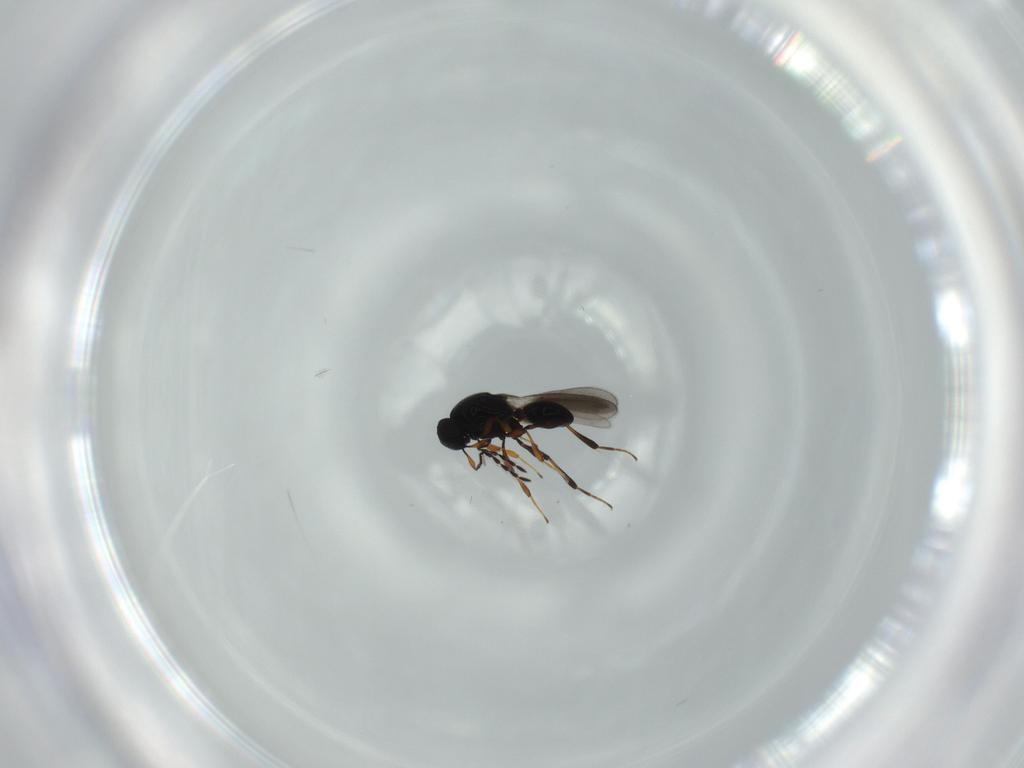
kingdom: Animalia
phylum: Arthropoda
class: Insecta
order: Hymenoptera
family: Platygastridae
